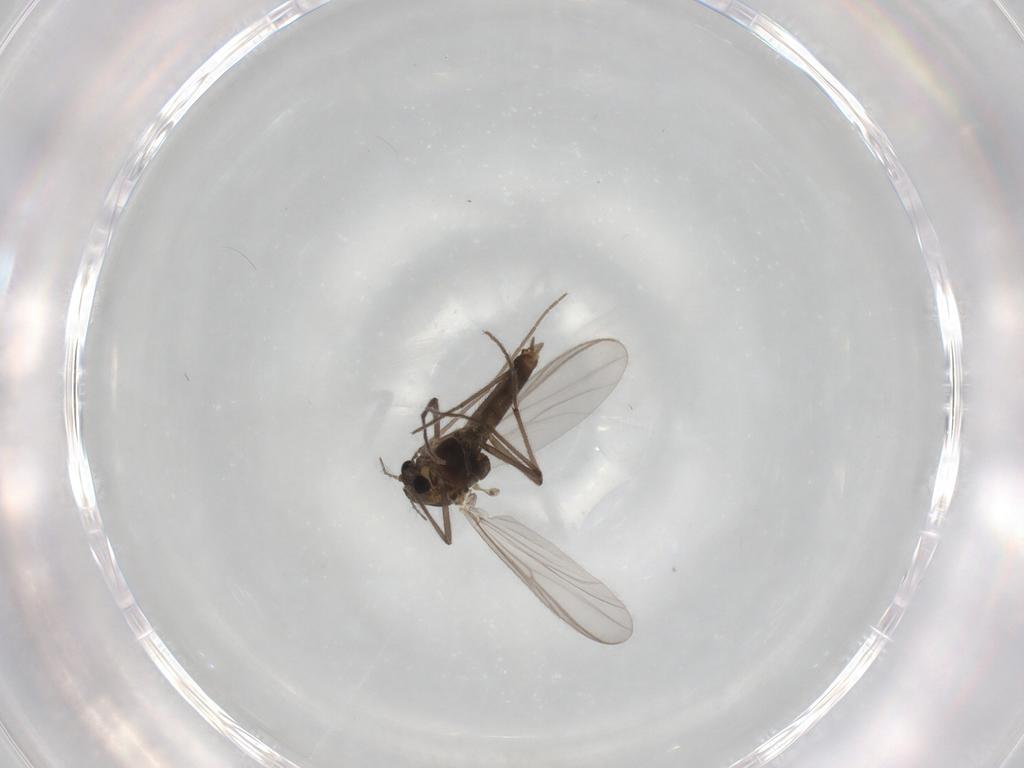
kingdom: Animalia
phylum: Arthropoda
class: Insecta
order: Diptera
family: Chironomidae
